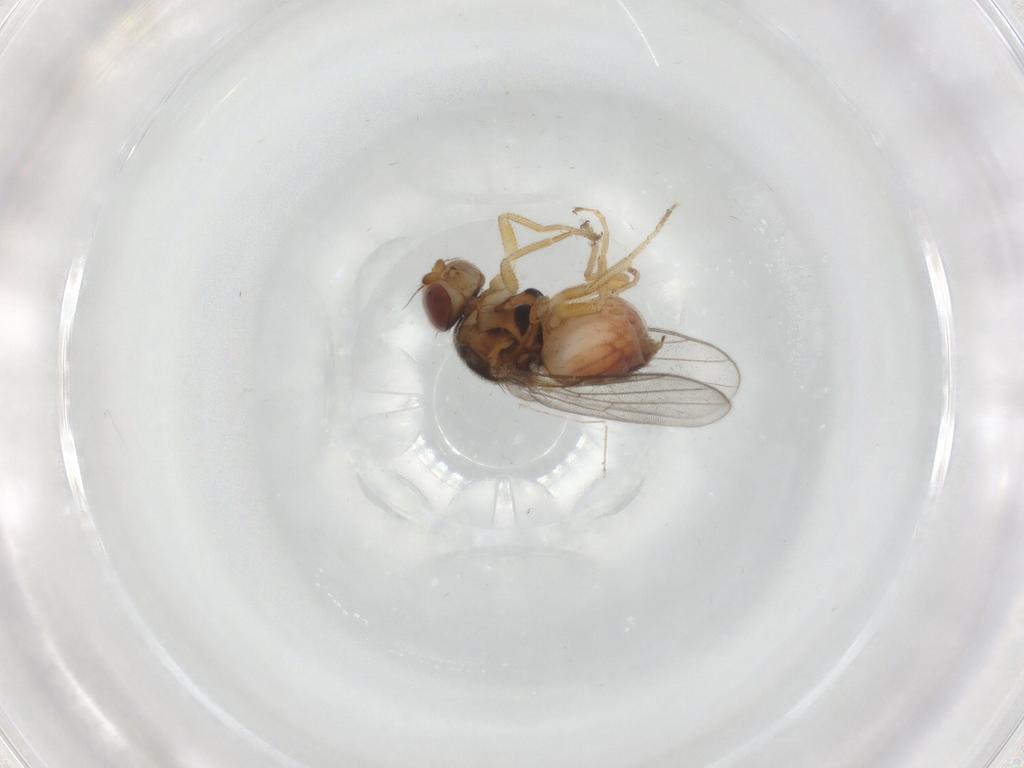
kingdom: Animalia
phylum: Arthropoda
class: Insecta
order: Diptera
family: Chloropidae
